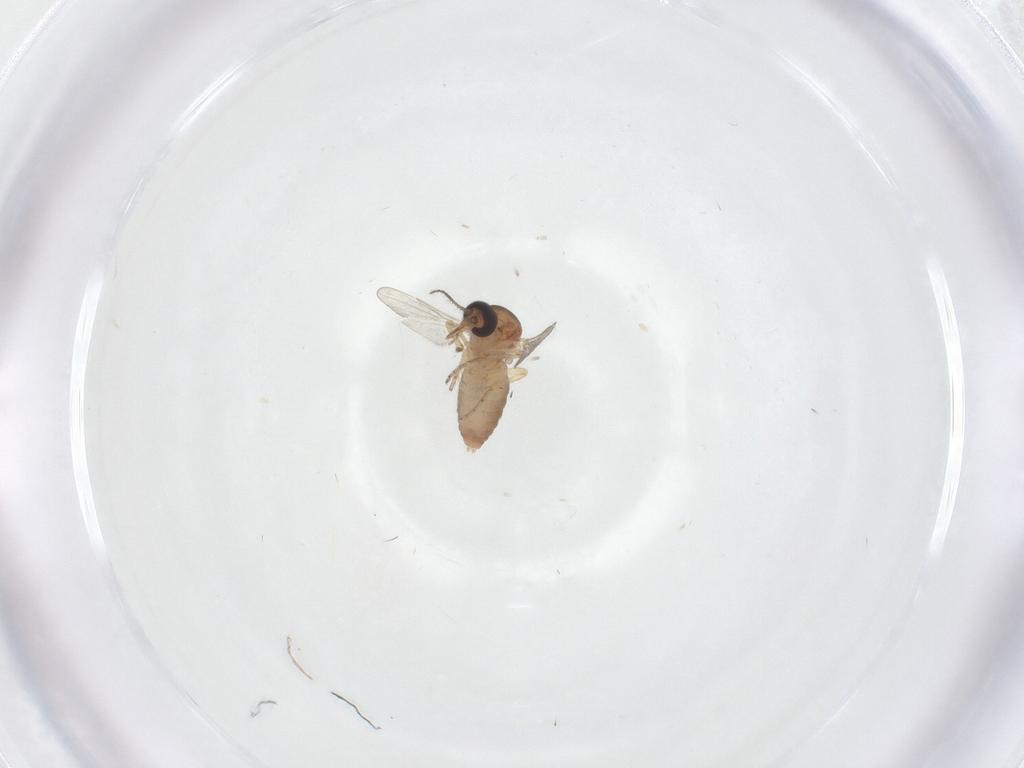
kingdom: Animalia
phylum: Arthropoda
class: Insecta
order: Diptera
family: Ceratopogonidae
